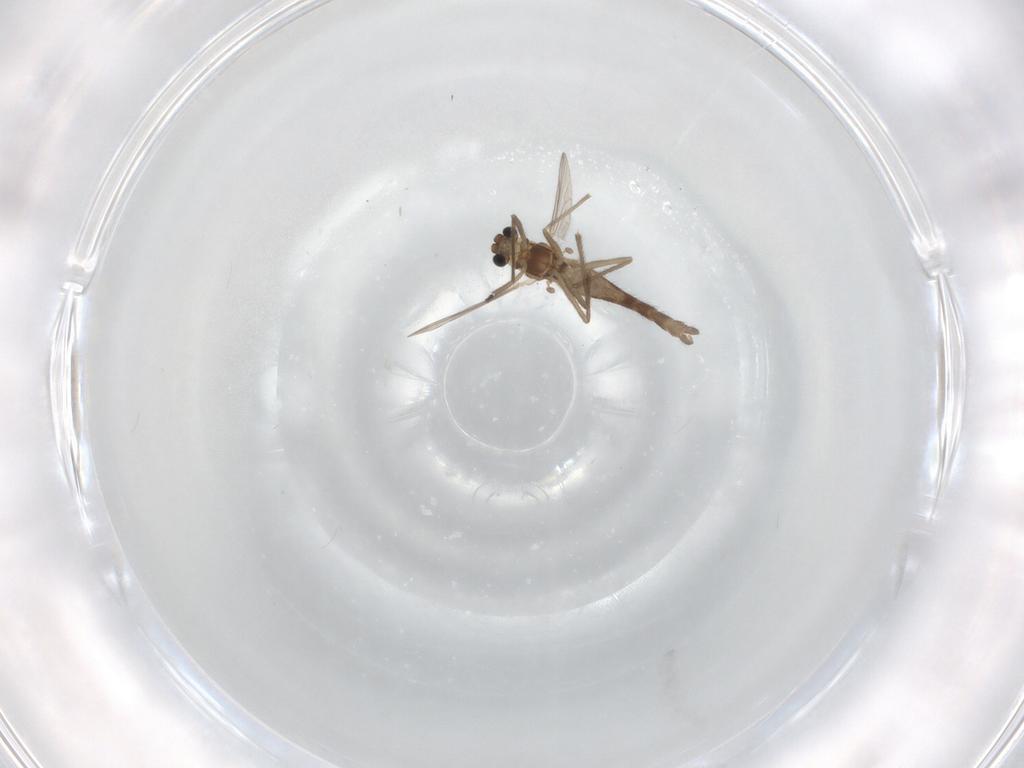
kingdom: Animalia
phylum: Arthropoda
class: Insecta
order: Diptera
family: Chironomidae
